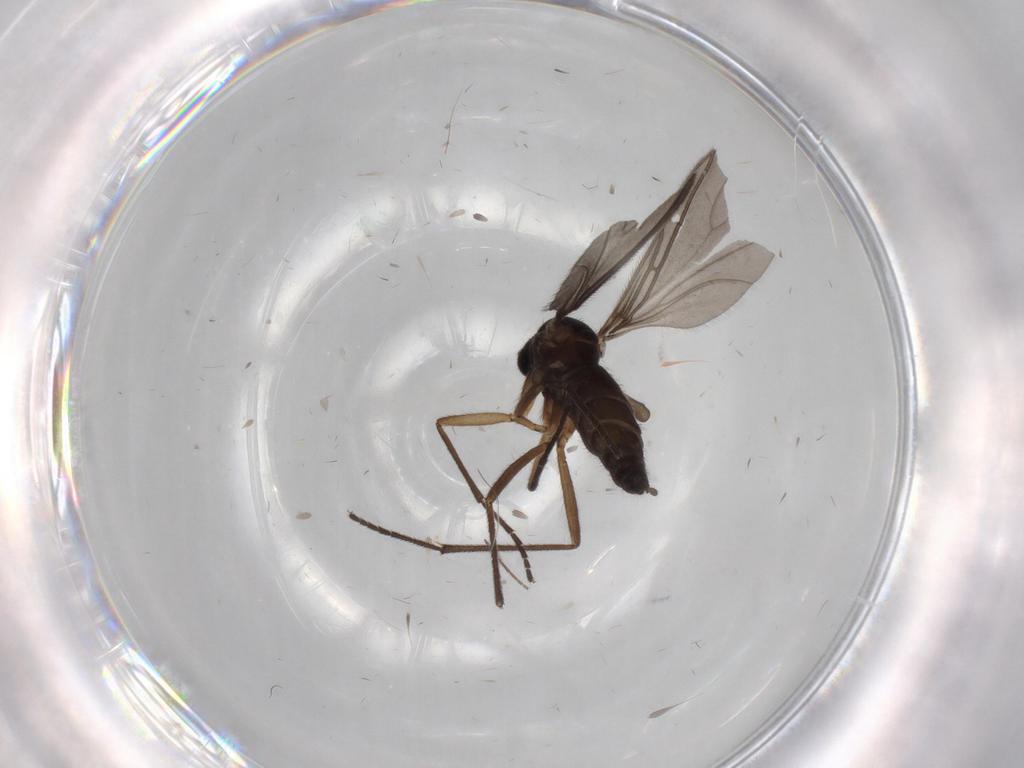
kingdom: Animalia
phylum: Arthropoda
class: Insecta
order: Diptera
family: Sciaridae
